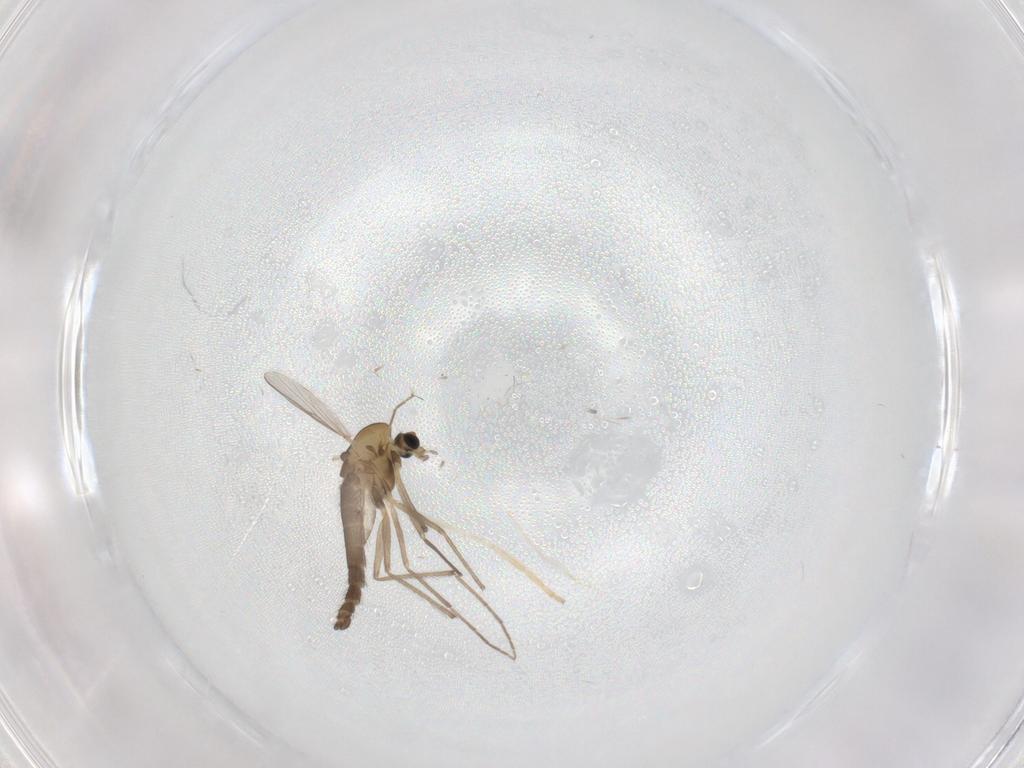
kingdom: Animalia
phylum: Arthropoda
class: Insecta
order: Diptera
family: Chironomidae
